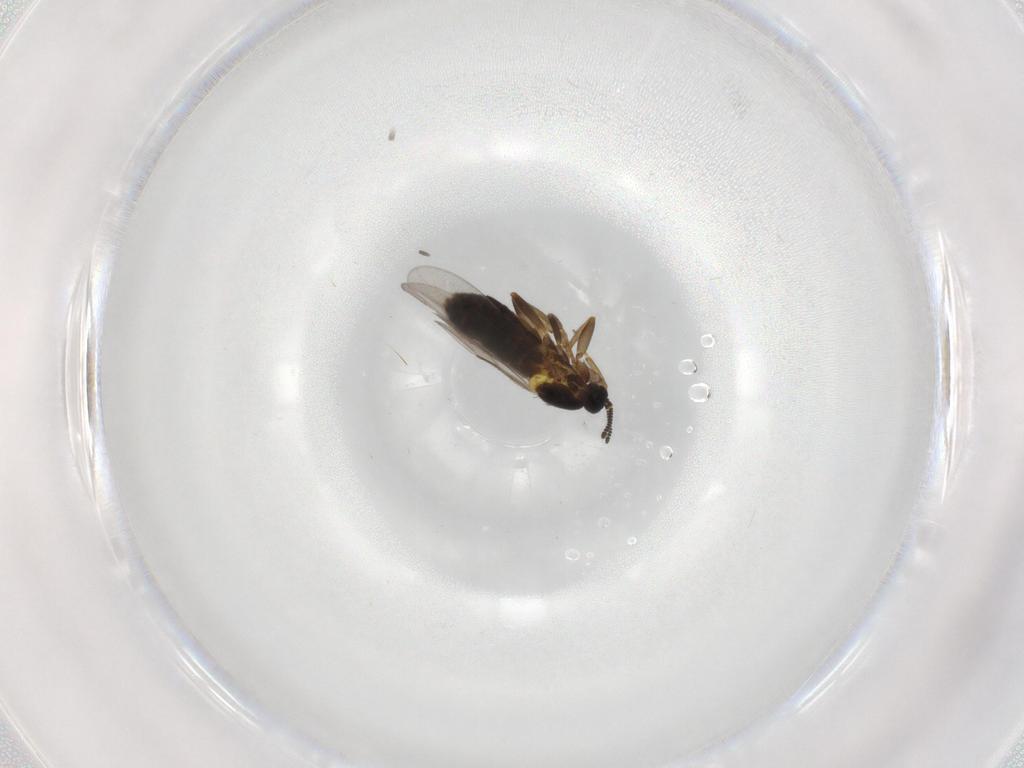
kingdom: Animalia
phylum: Arthropoda
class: Insecta
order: Diptera
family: Scatopsidae
